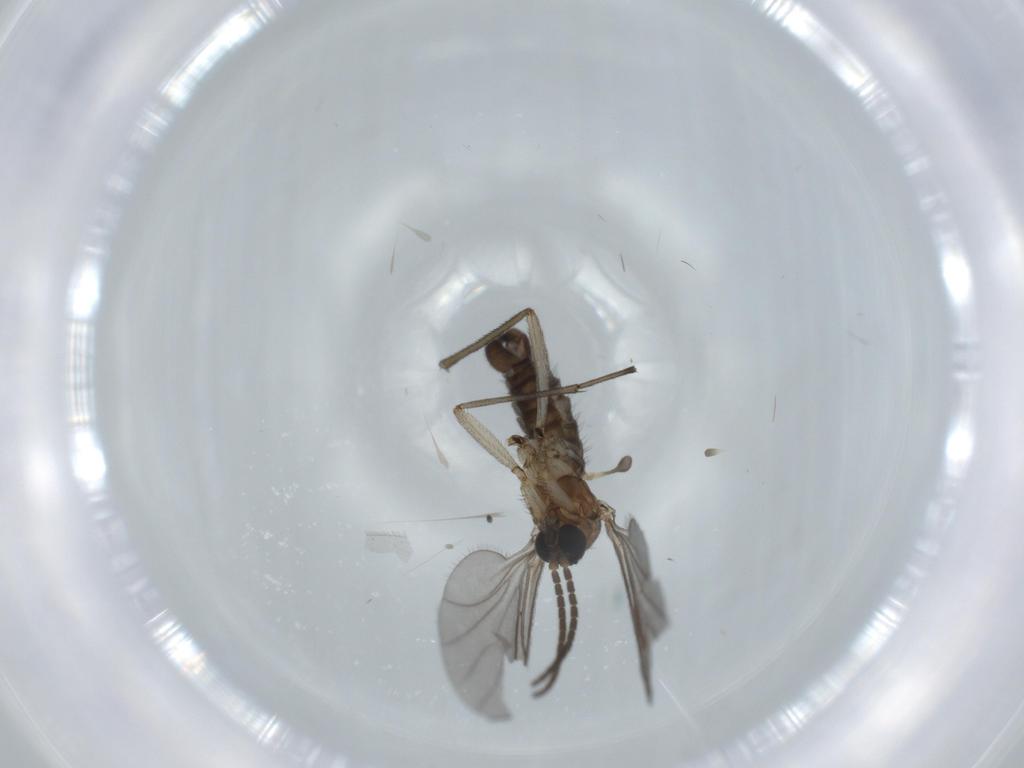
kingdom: Animalia
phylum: Arthropoda
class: Insecta
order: Diptera
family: Sciaridae
